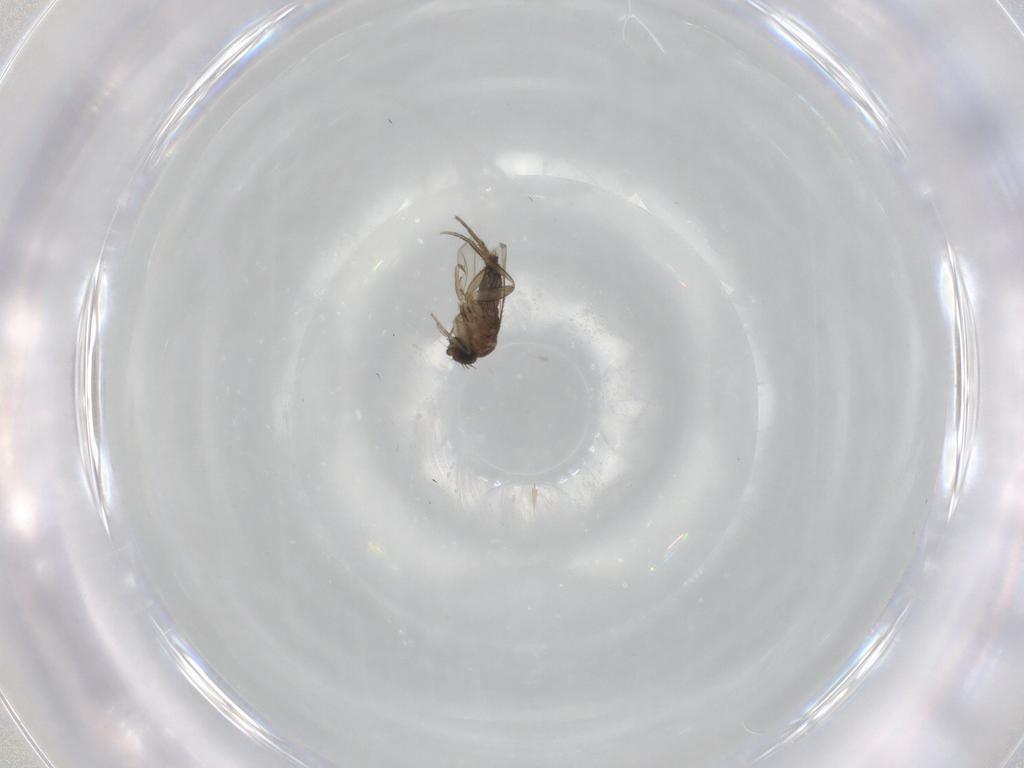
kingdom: Animalia
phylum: Arthropoda
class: Insecta
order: Diptera
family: Phoridae
